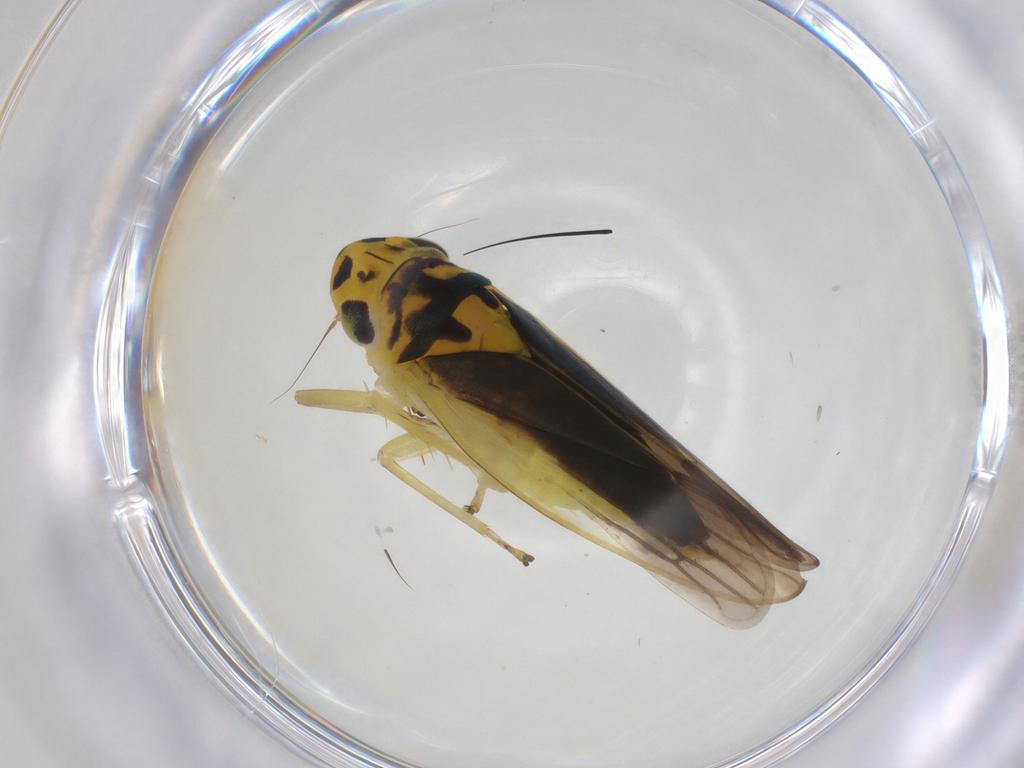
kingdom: Animalia
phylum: Arthropoda
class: Insecta
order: Hemiptera
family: Cicadellidae
